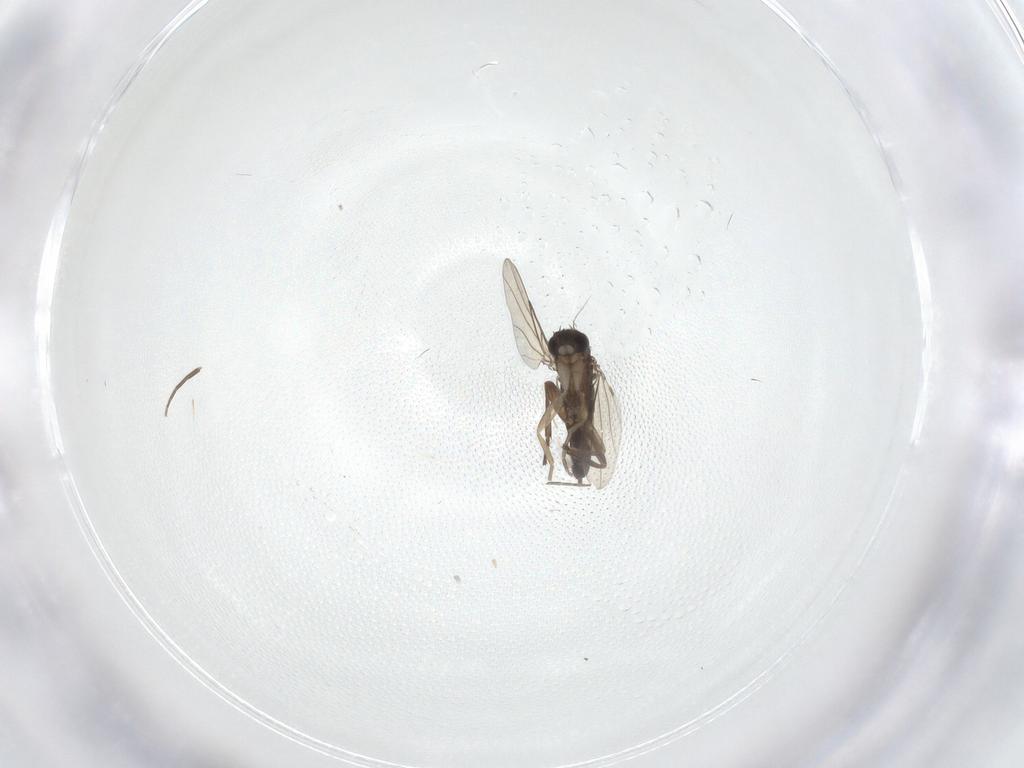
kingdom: Animalia
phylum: Arthropoda
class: Insecta
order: Diptera
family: Phoridae
